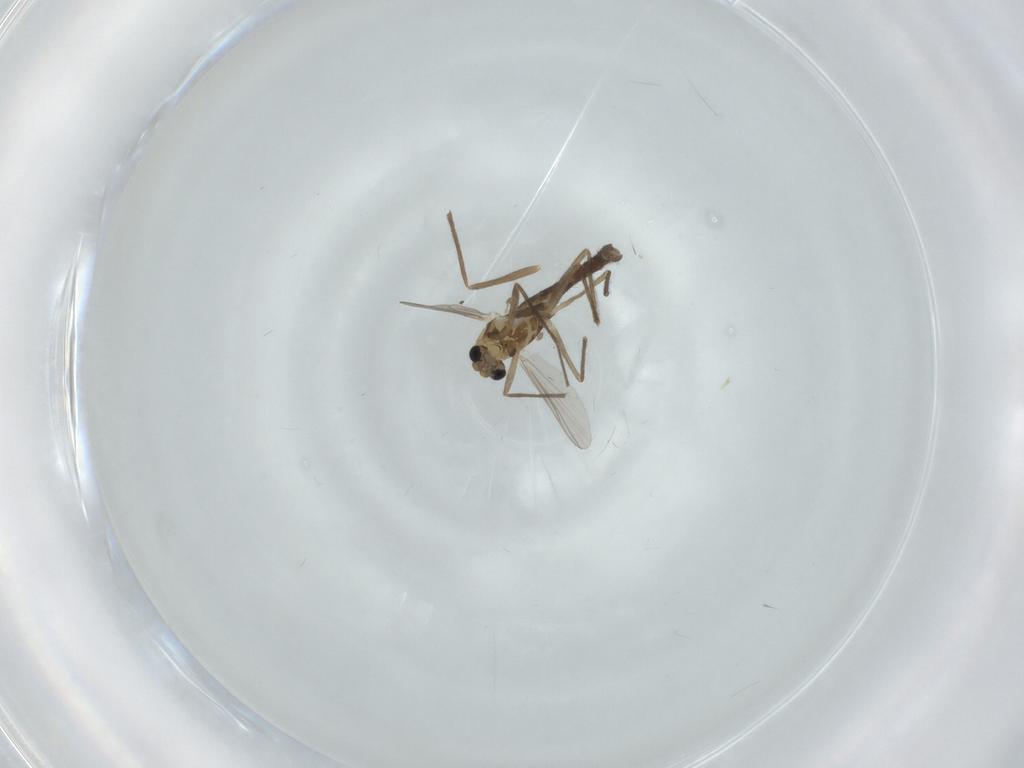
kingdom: Animalia
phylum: Arthropoda
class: Insecta
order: Diptera
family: Chironomidae
